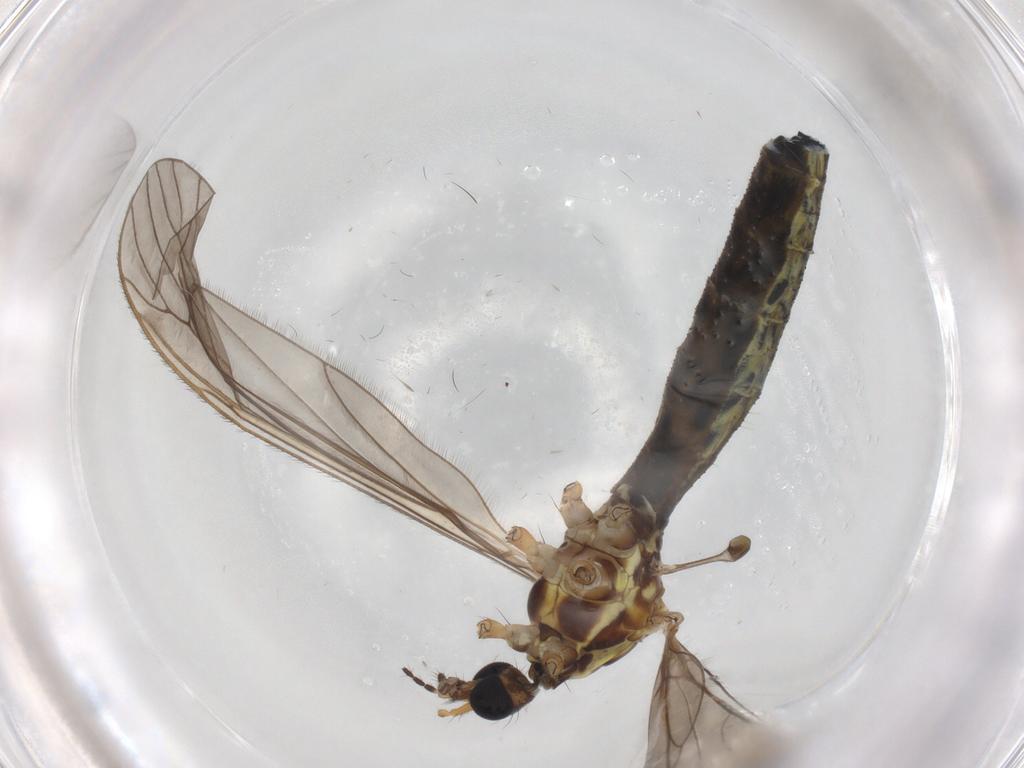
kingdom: Animalia
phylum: Arthropoda
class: Insecta
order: Diptera
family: Limoniidae
